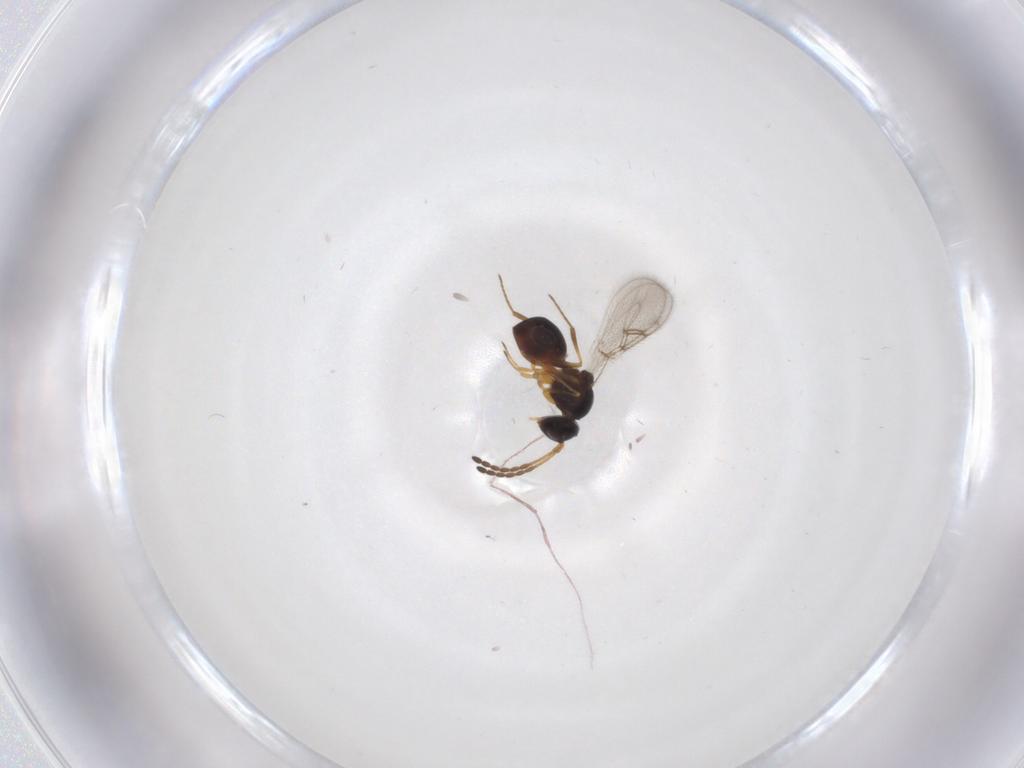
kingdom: Animalia
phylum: Arthropoda
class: Insecta
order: Hymenoptera
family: Figitidae
